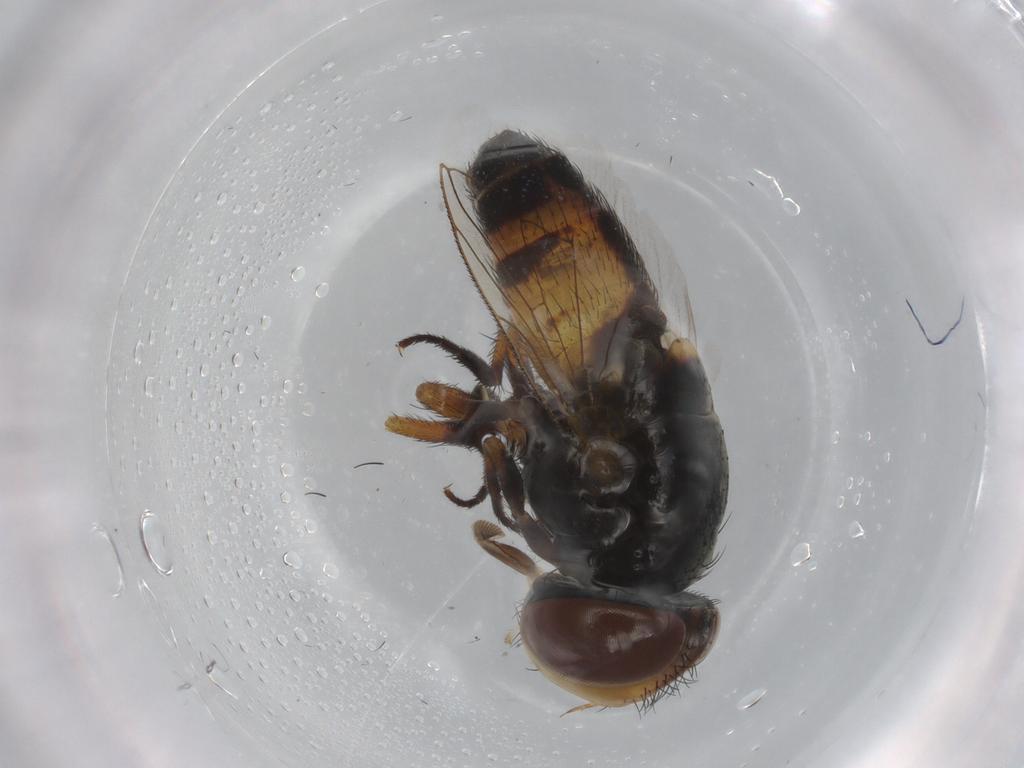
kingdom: Animalia
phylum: Arthropoda
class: Insecta
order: Diptera
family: Sarcophagidae
